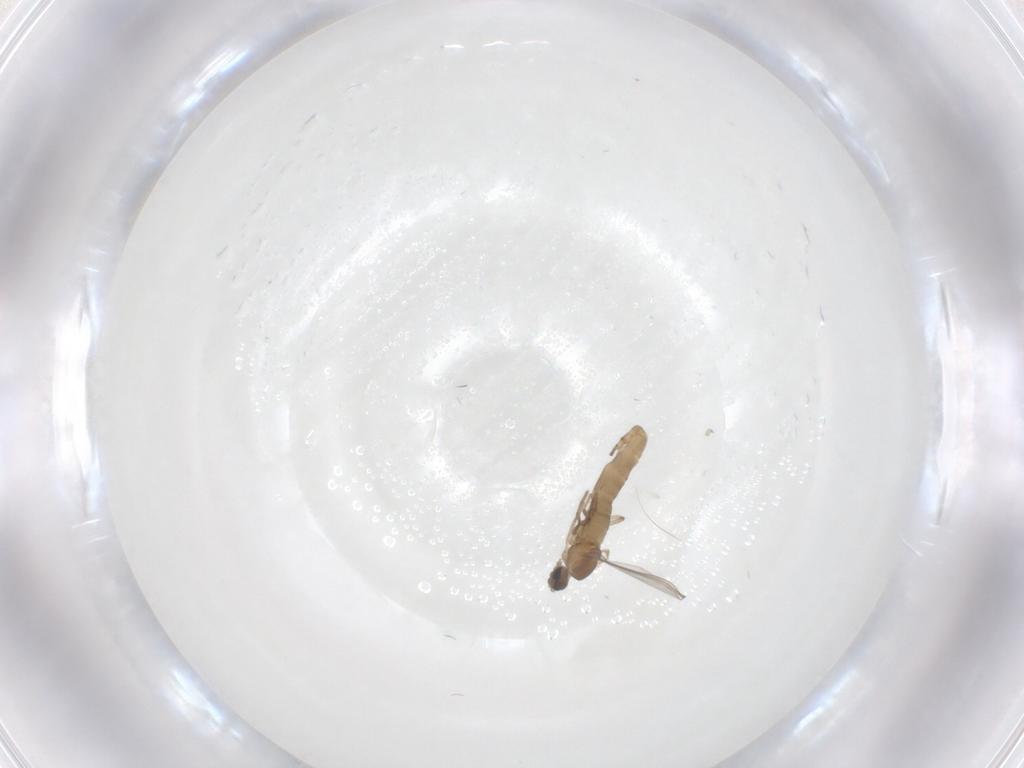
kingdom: Animalia
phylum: Arthropoda
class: Insecta
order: Diptera
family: Cecidomyiidae
